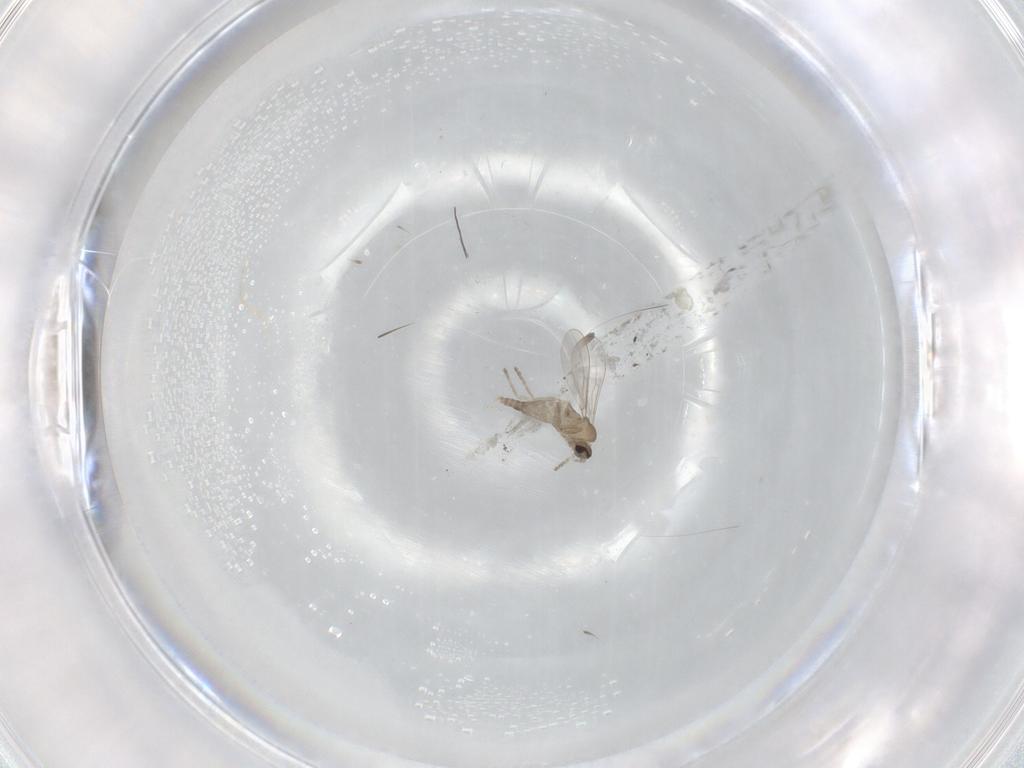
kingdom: Animalia
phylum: Arthropoda
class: Insecta
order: Diptera
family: Cecidomyiidae
